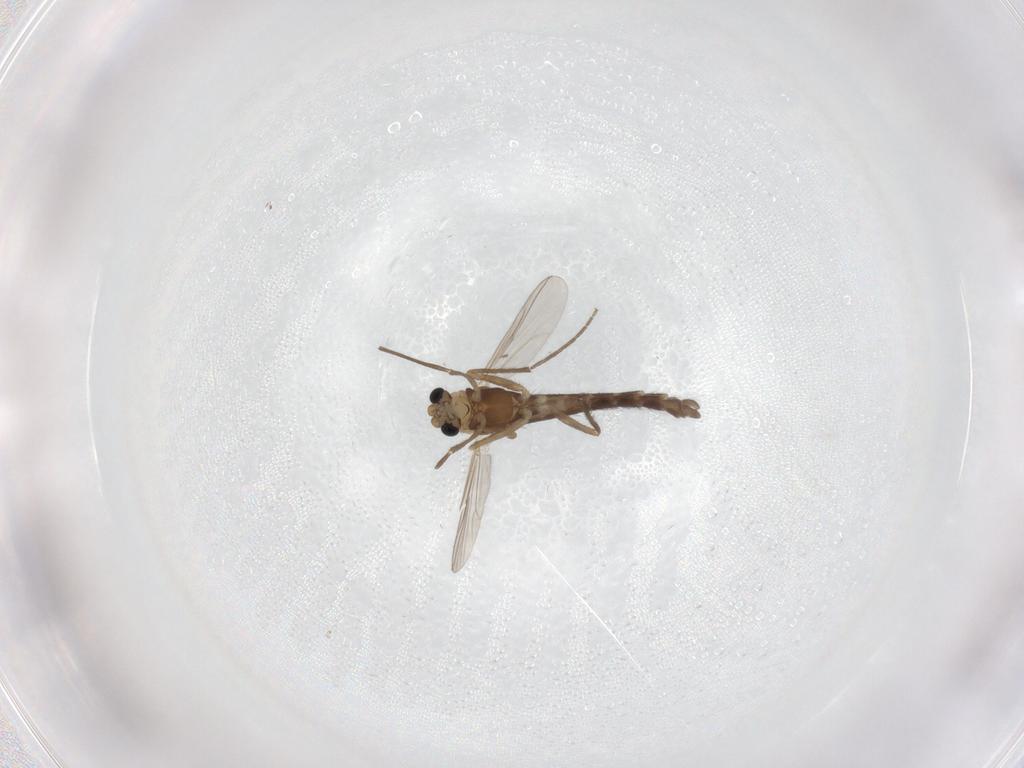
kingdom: Animalia
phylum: Arthropoda
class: Insecta
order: Diptera
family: Chironomidae
